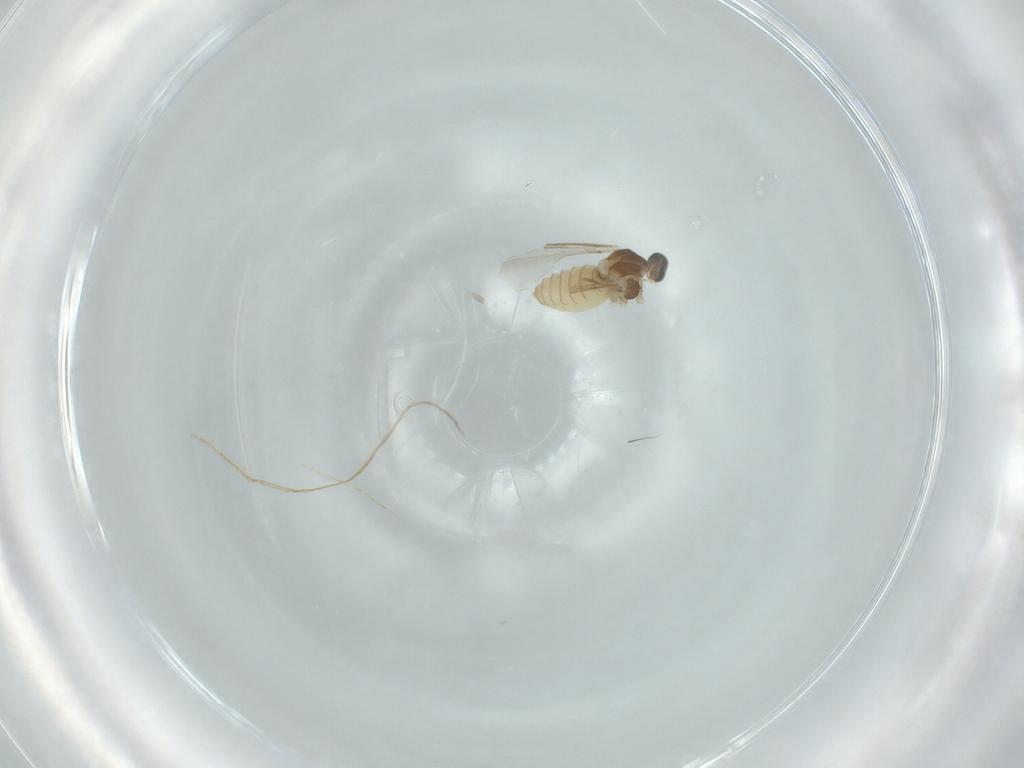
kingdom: Animalia
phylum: Arthropoda
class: Insecta
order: Diptera
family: Cecidomyiidae
